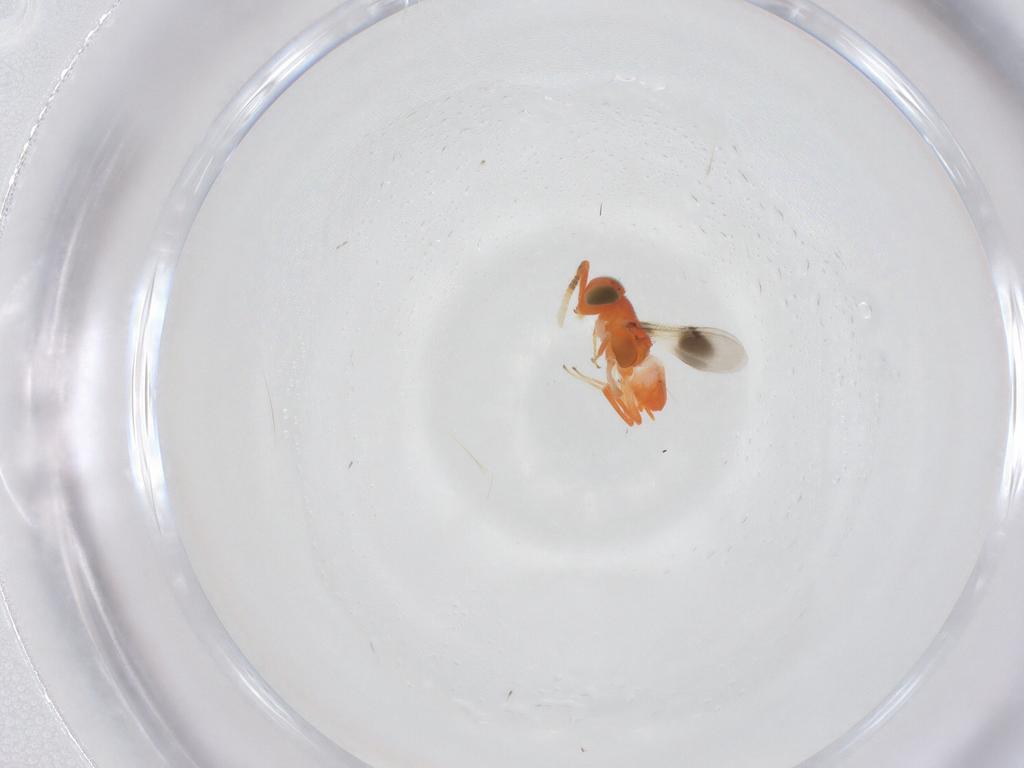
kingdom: Animalia
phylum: Arthropoda
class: Insecta
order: Hymenoptera
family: Encyrtidae
